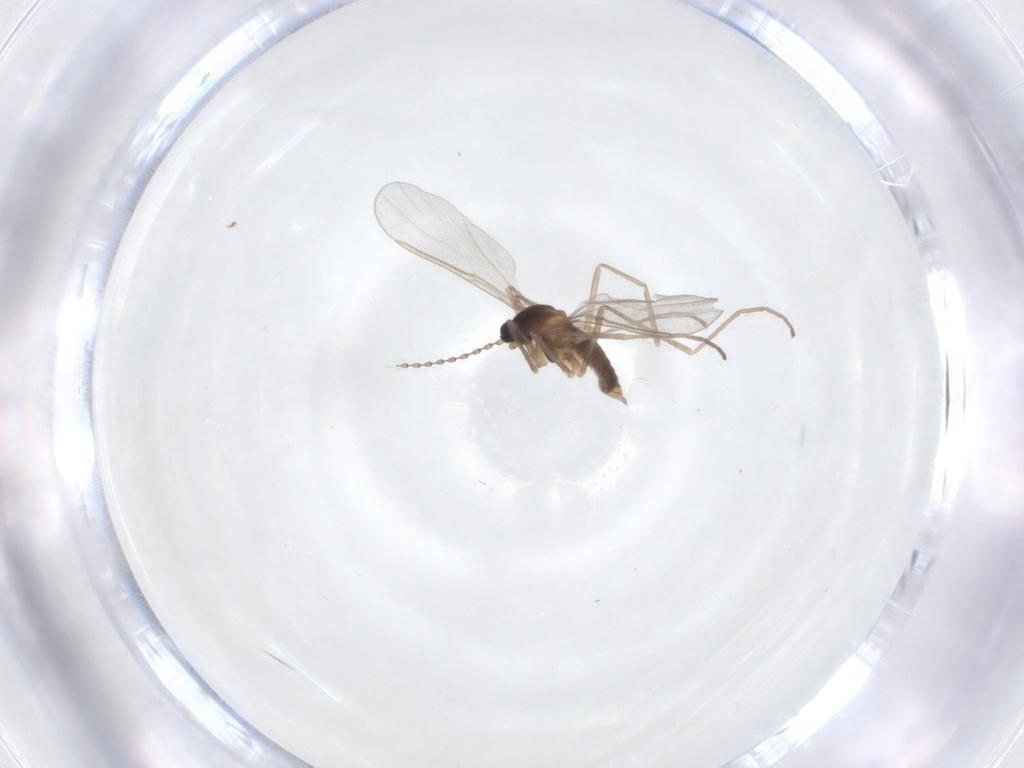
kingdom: Animalia
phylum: Arthropoda
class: Insecta
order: Diptera
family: Cecidomyiidae
